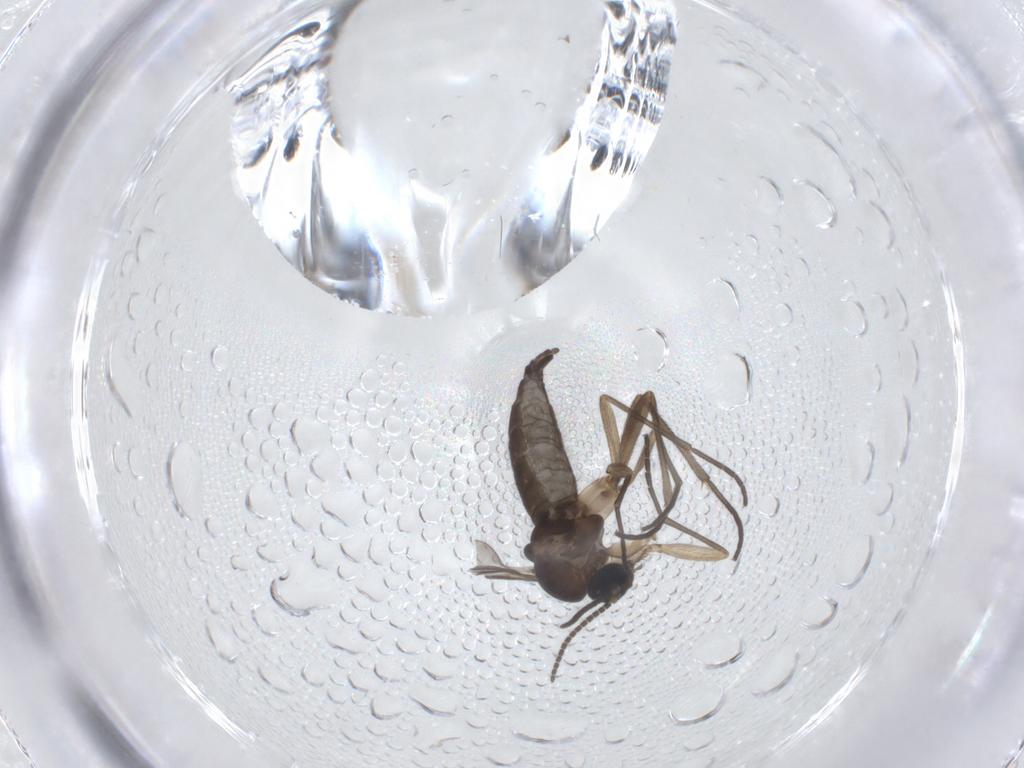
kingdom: Animalia
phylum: Arthropoda
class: Insecta
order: Diptera
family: Sciaridae
